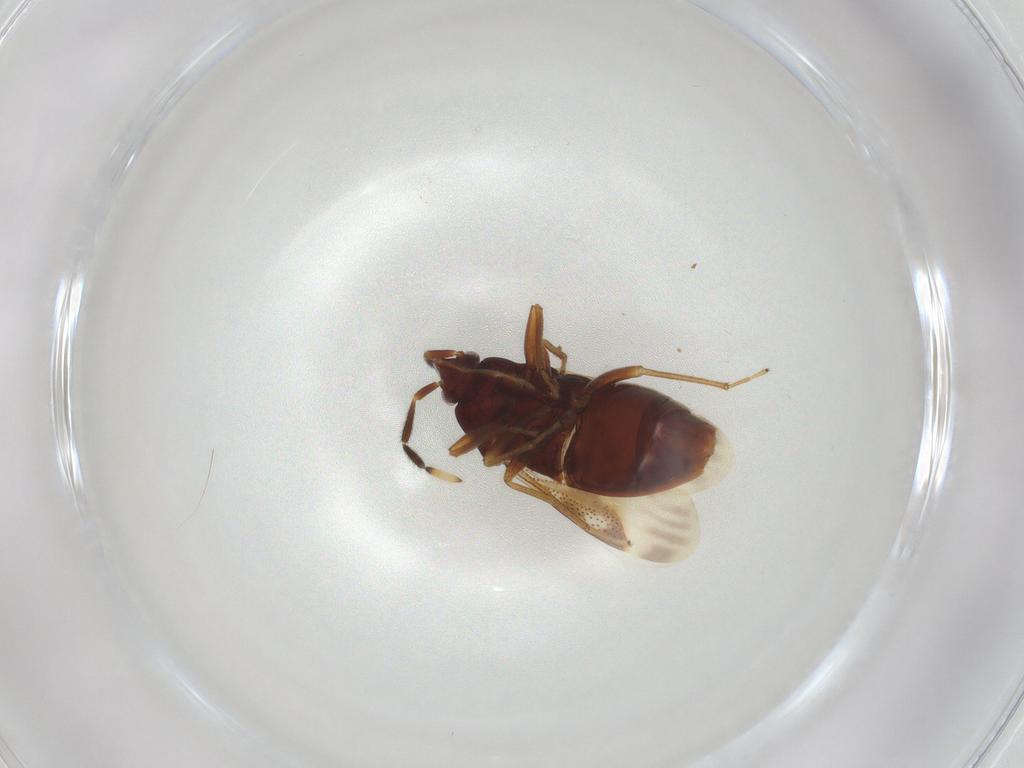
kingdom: Animalia
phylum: Arthropoda
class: Insecta
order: Hemiptera
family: Rhyparochromidae
